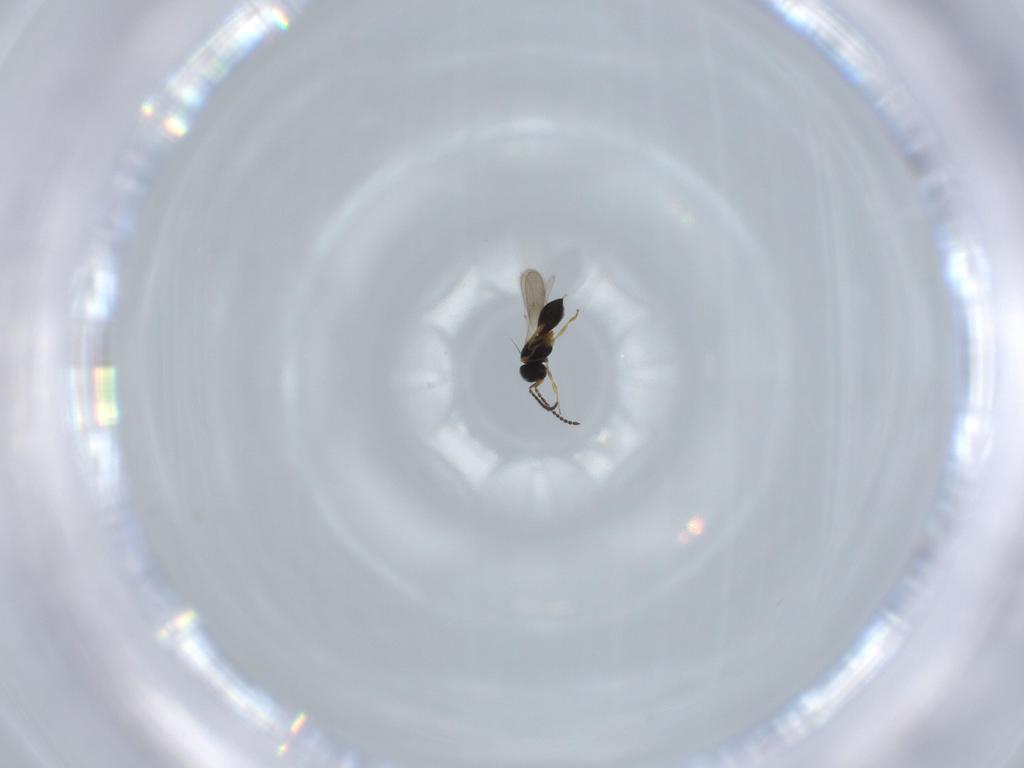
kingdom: Animalia
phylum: Arthropoda
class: Insecta
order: Hymenoptera
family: Scelionidae
